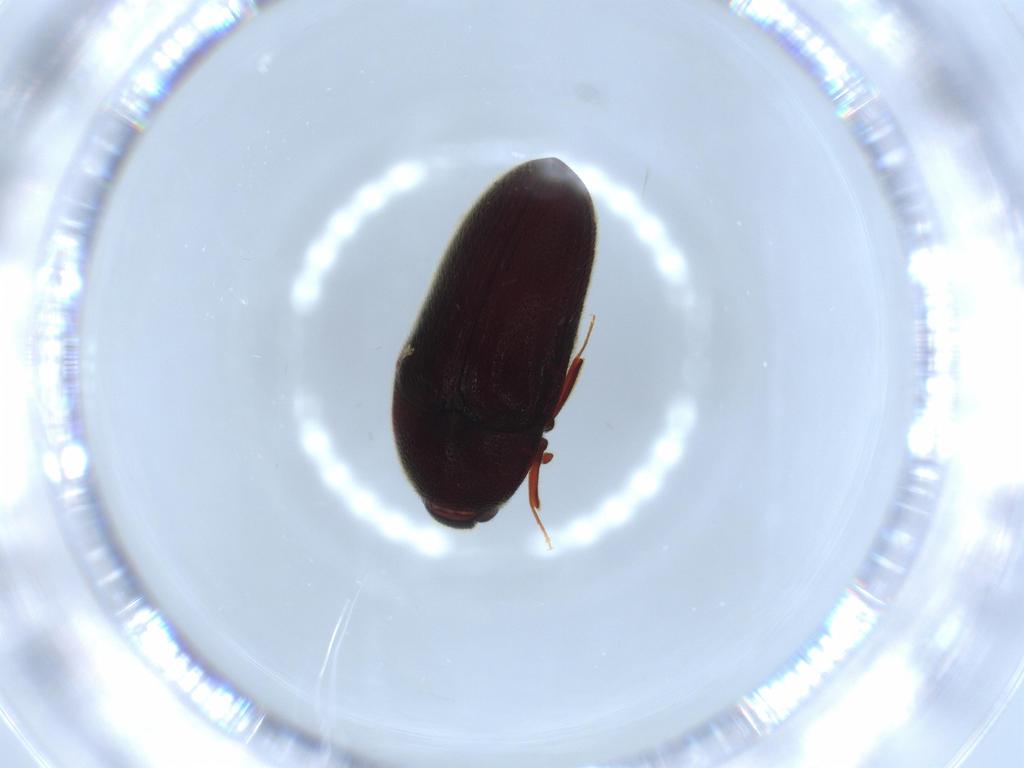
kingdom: Animalia
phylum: Arthropoda
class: Insecta
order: Coleoptera
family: Throscidae
